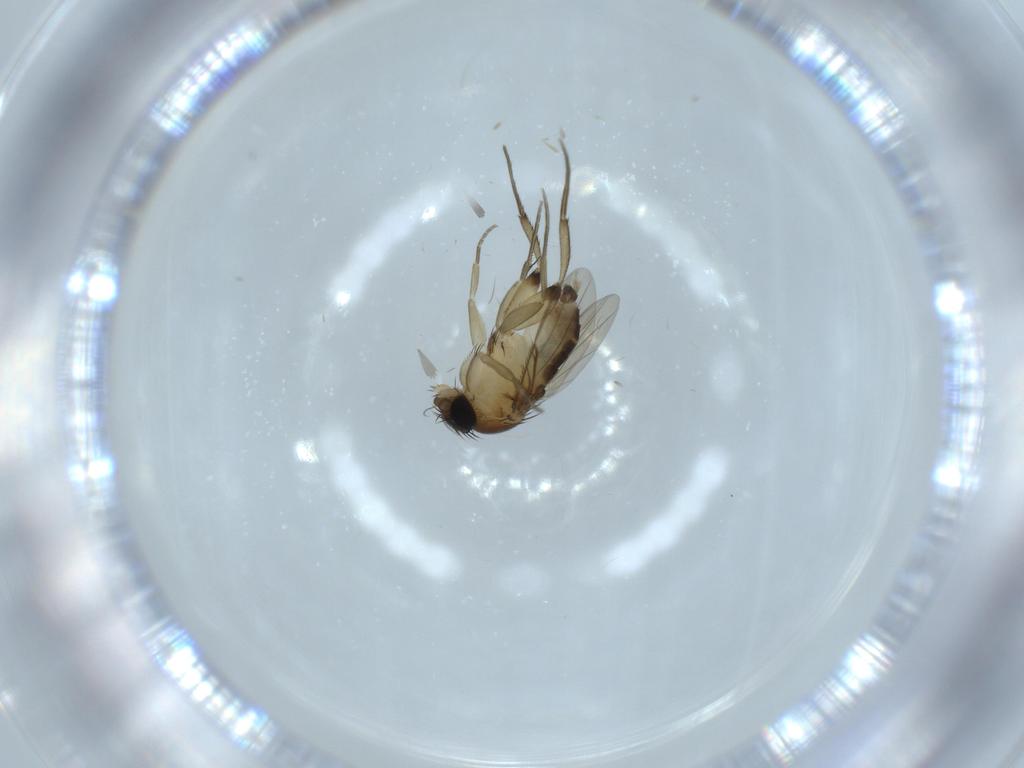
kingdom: Animalia
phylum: Arthropoda
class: Insecta
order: Diptera
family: Phoridae
